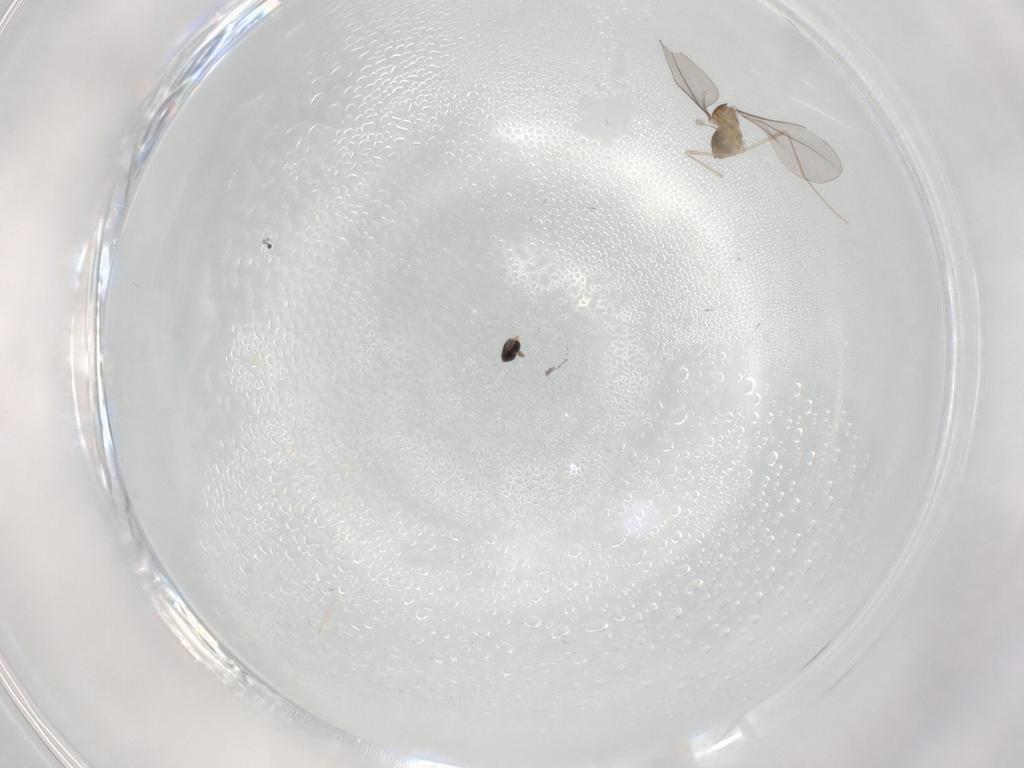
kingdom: Animalia
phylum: Arthropoda
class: Insecta
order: Diptera
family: Cecidomyiidae
